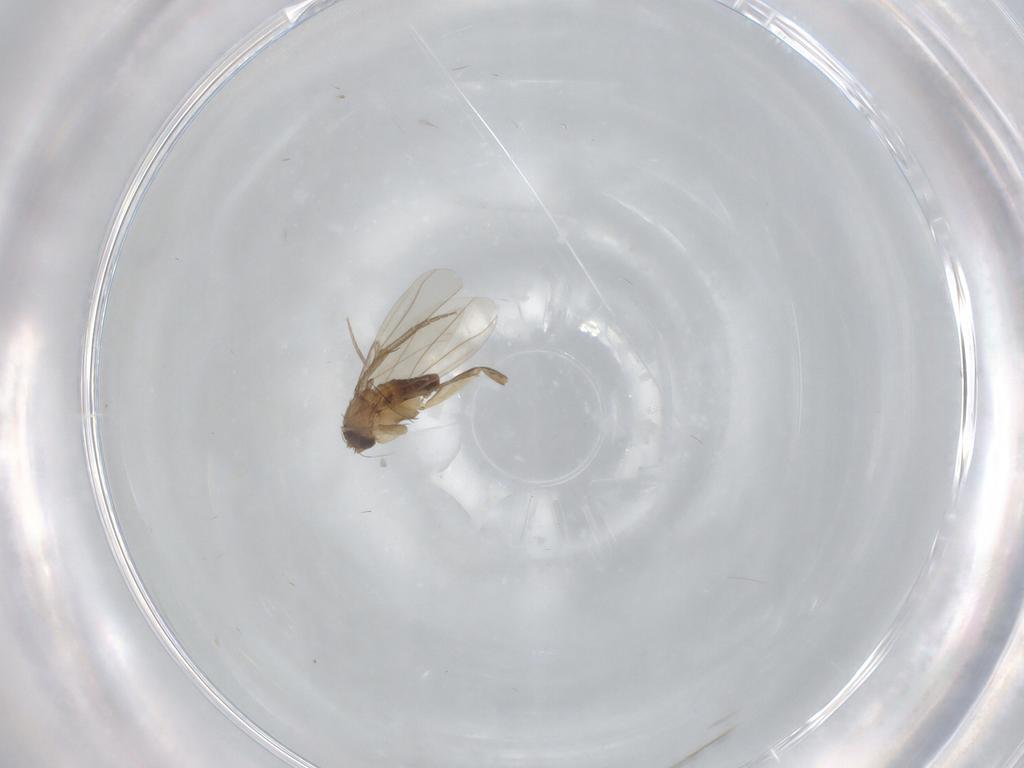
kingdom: Animalia
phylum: Arthropoda
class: Insecta
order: Diptera
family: Phoridae
